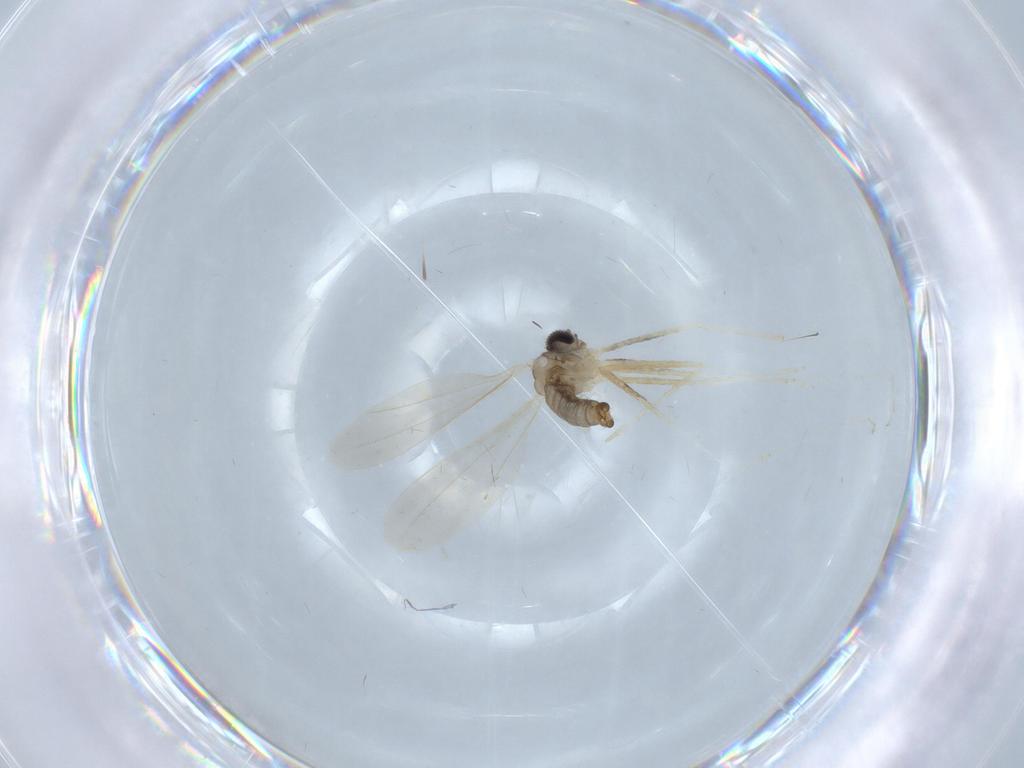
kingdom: Animalia
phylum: Arthropoda
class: Insecta
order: Diptera
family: Cecidomyiidae
